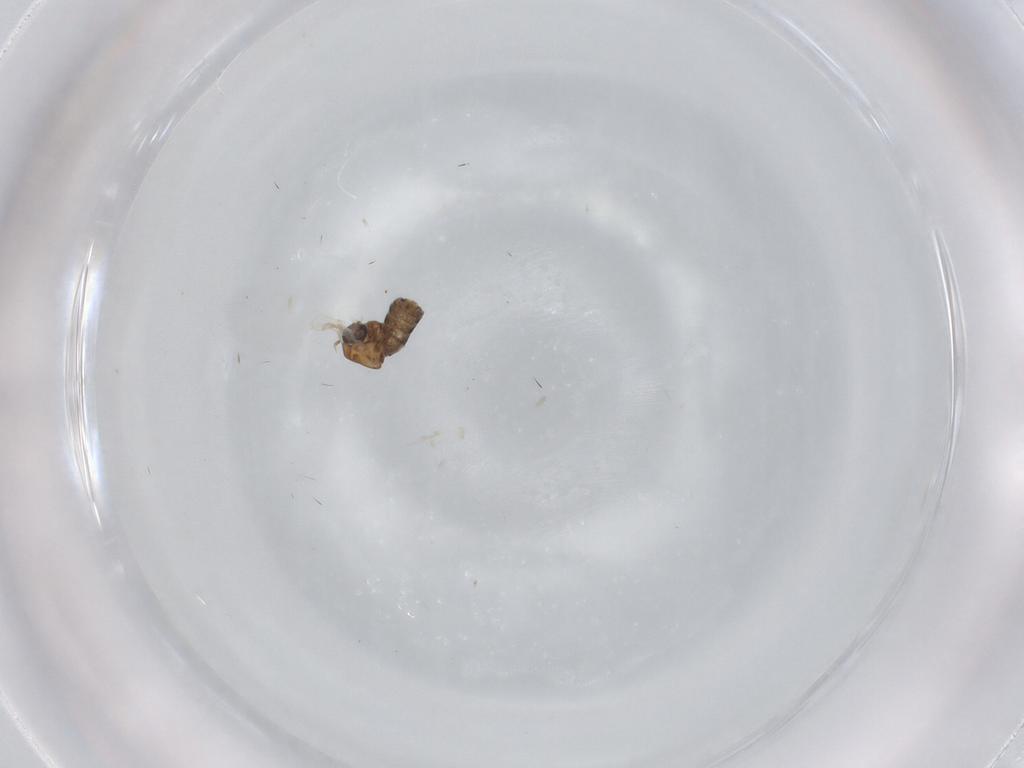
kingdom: Animalia
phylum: Arthropoda
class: Insecta
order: Diptera
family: Ceratopogonidae
